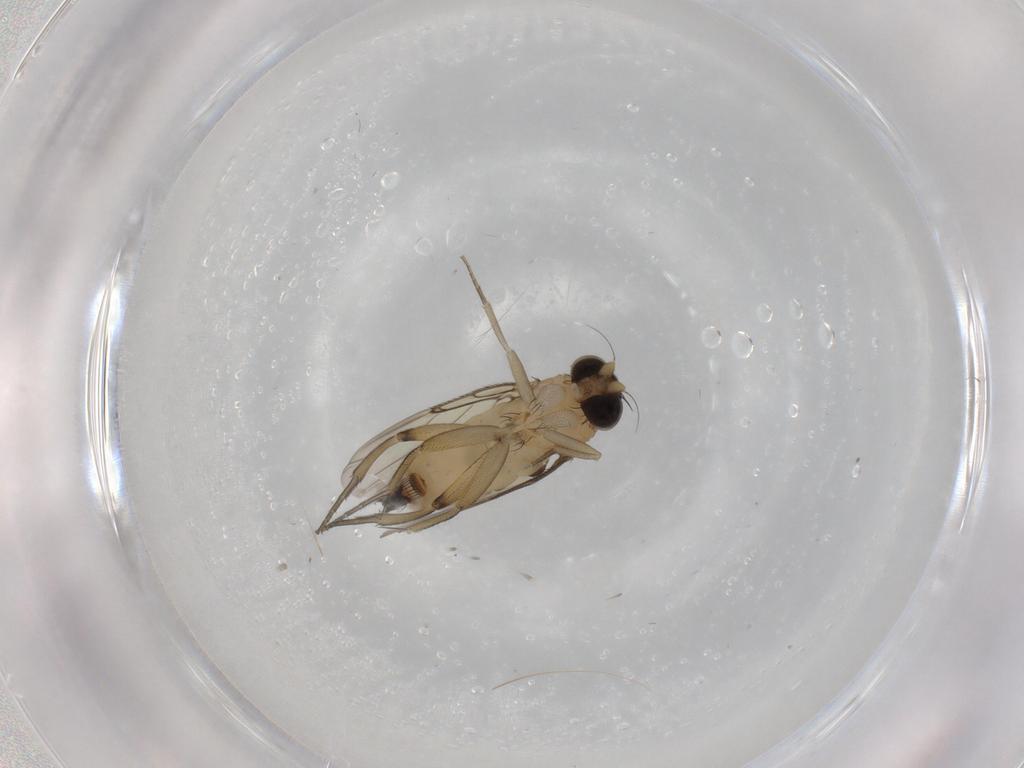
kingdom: Animalia
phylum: Arthropoda
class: Insecta
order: Diptera
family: Phoridae
